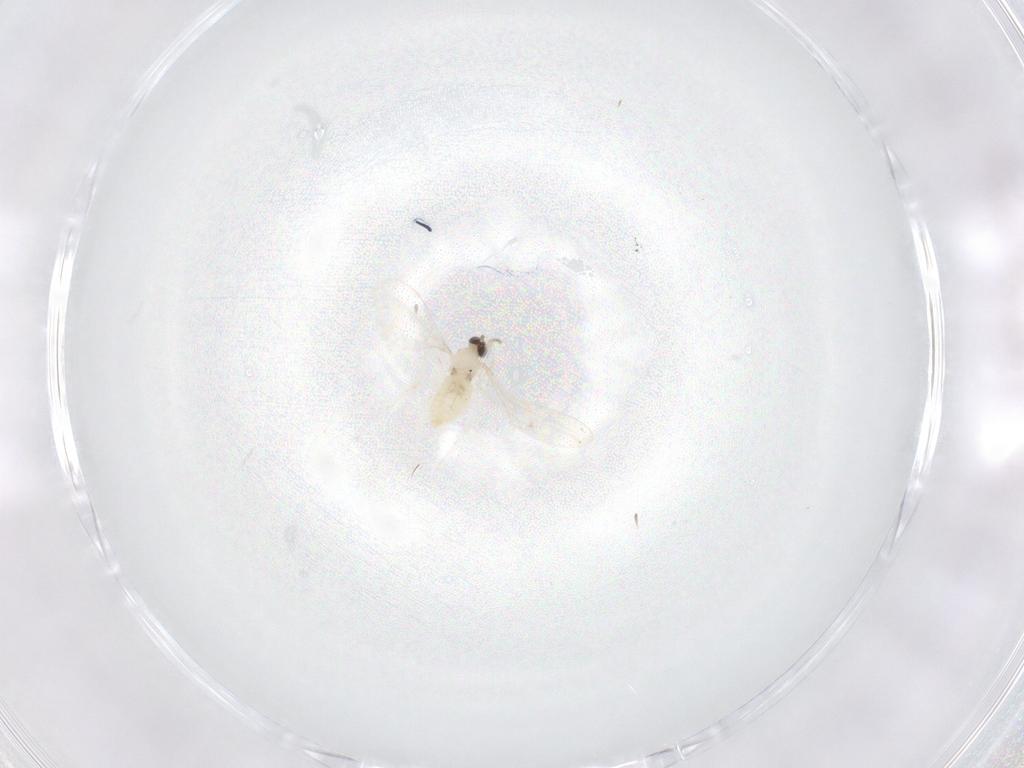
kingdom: Animalia
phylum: Arthropoda
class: Insecta
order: Diptera
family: Cecidomyiidae
